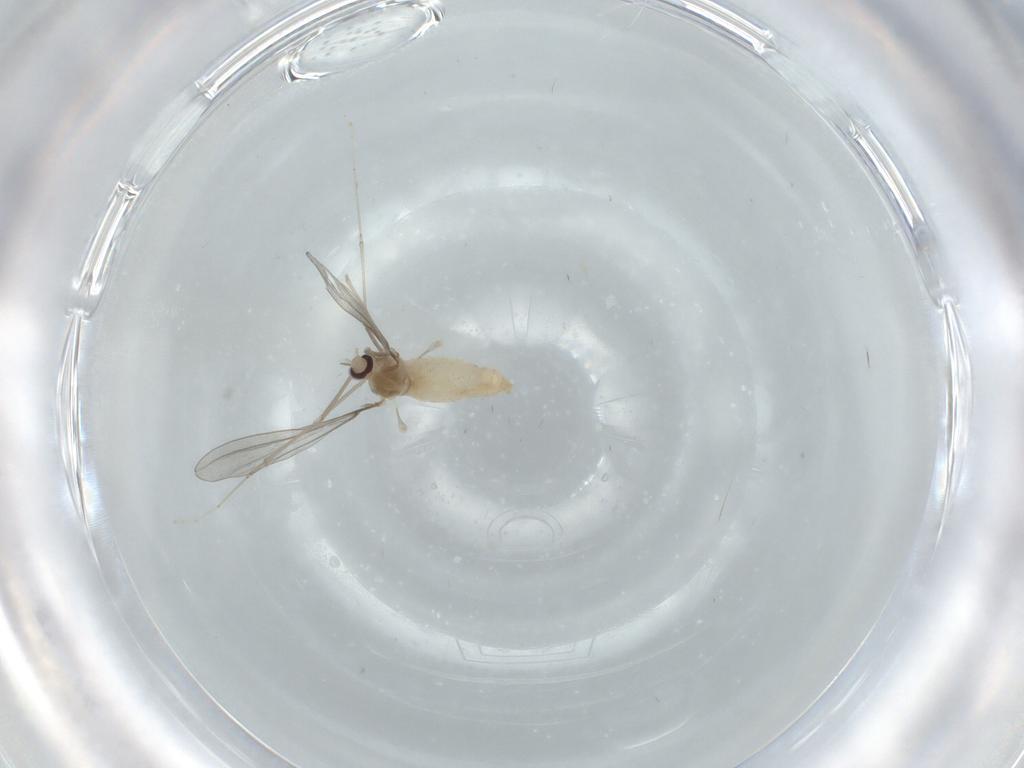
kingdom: Animalia
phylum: Arthropoda
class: Insecta
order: Diptera
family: Cecidomyiidae
